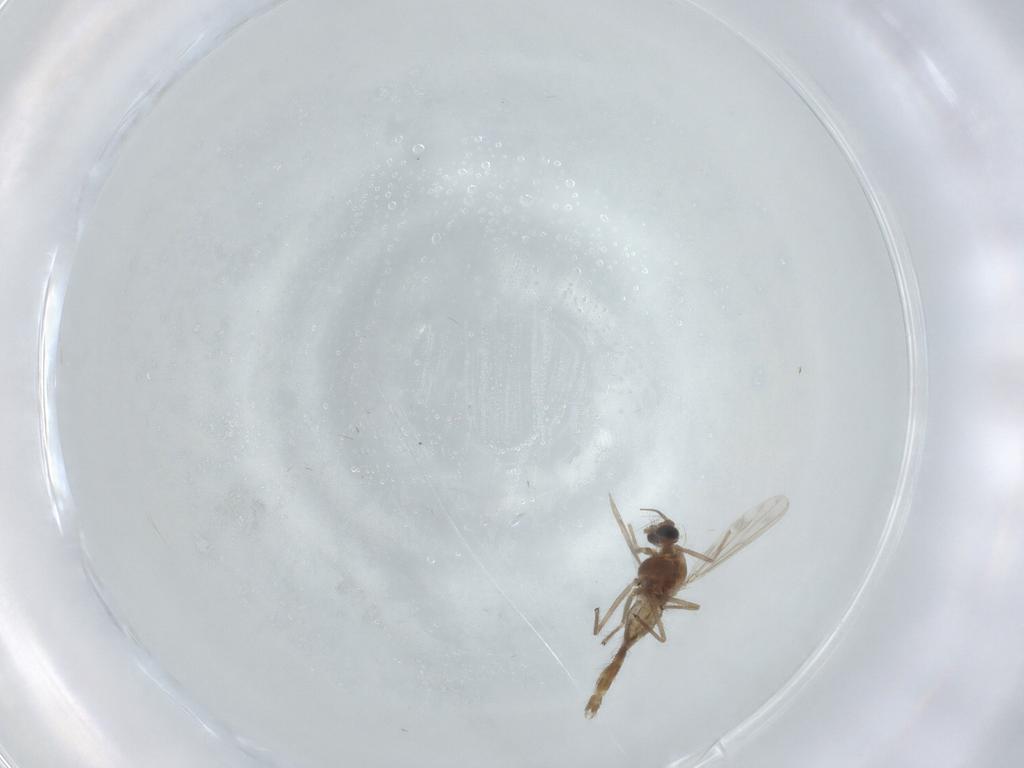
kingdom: Animalia
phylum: Arthropoda
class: Insecta
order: Diptera
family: Chironomidae
